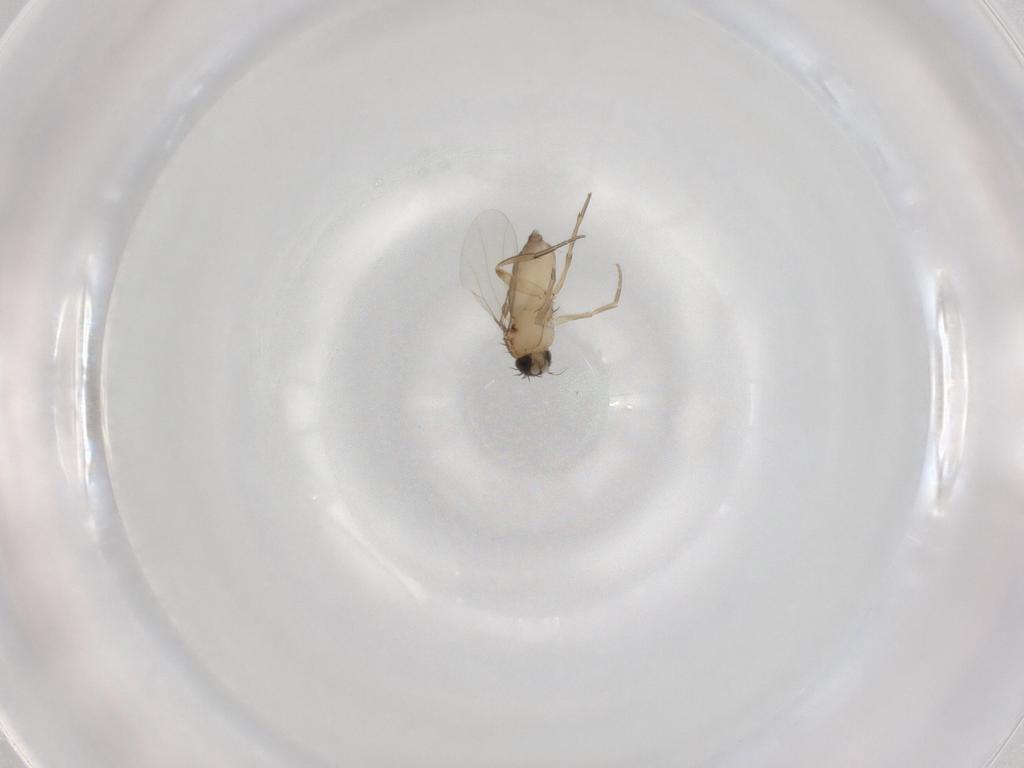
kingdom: Animalia
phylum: Arthropoda
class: Insecta
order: Diptera
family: Phoridae
